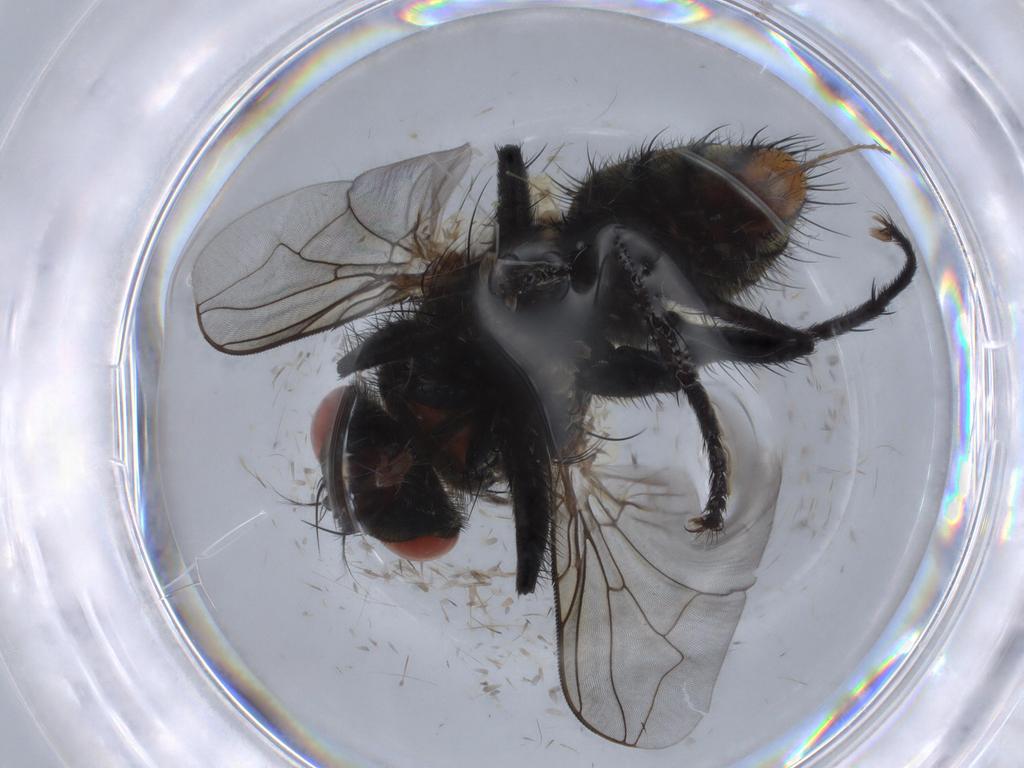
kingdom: Animalia
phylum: Arthropoda
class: Insecta
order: Diptera
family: Sarcophagidae
